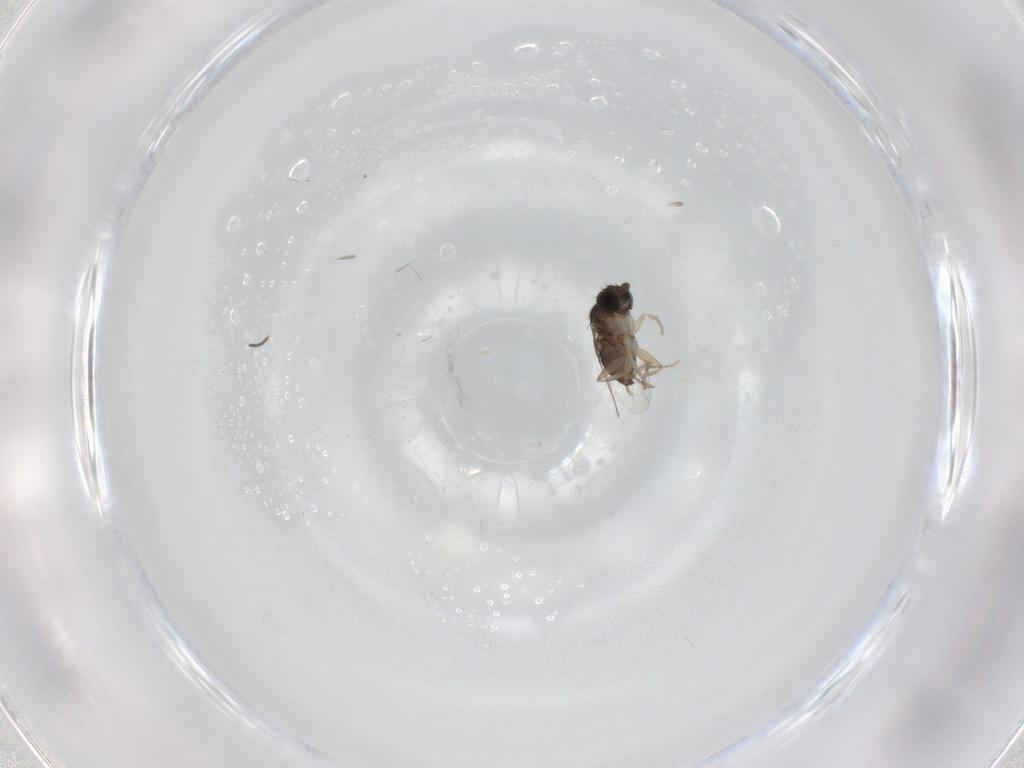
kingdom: Animalia
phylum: Arthropoda
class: Insecta
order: Diptera
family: Phoridae
